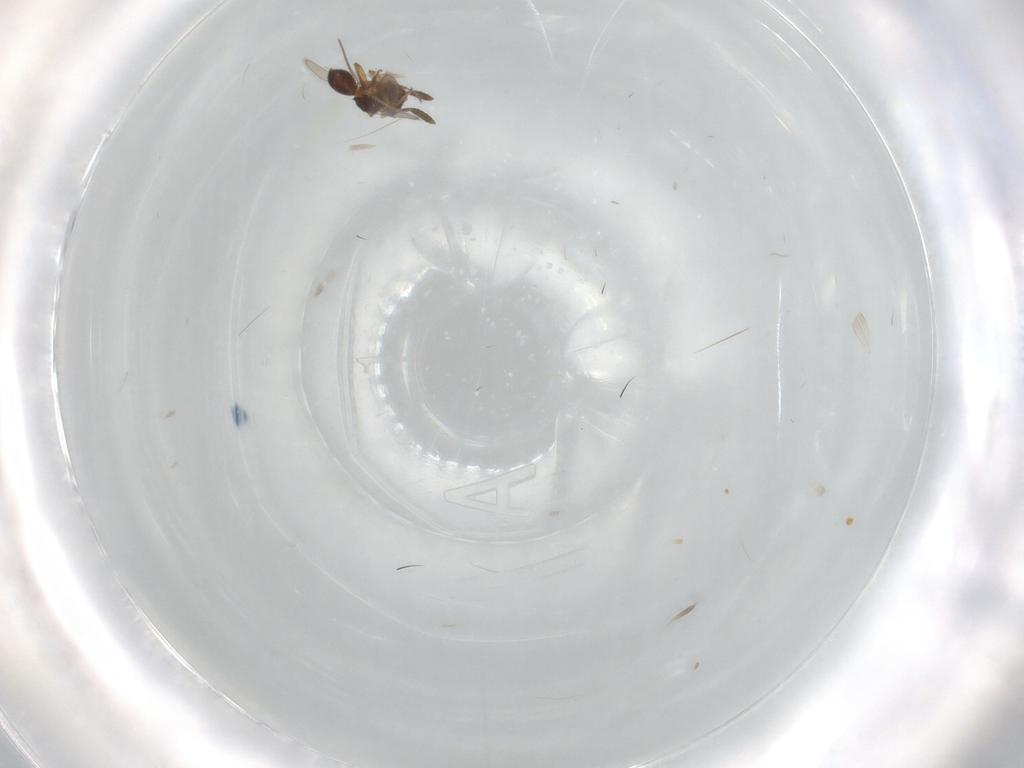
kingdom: Animalia
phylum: Arthropoda
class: Insecta
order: Hymenoptera
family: Scelionidae
